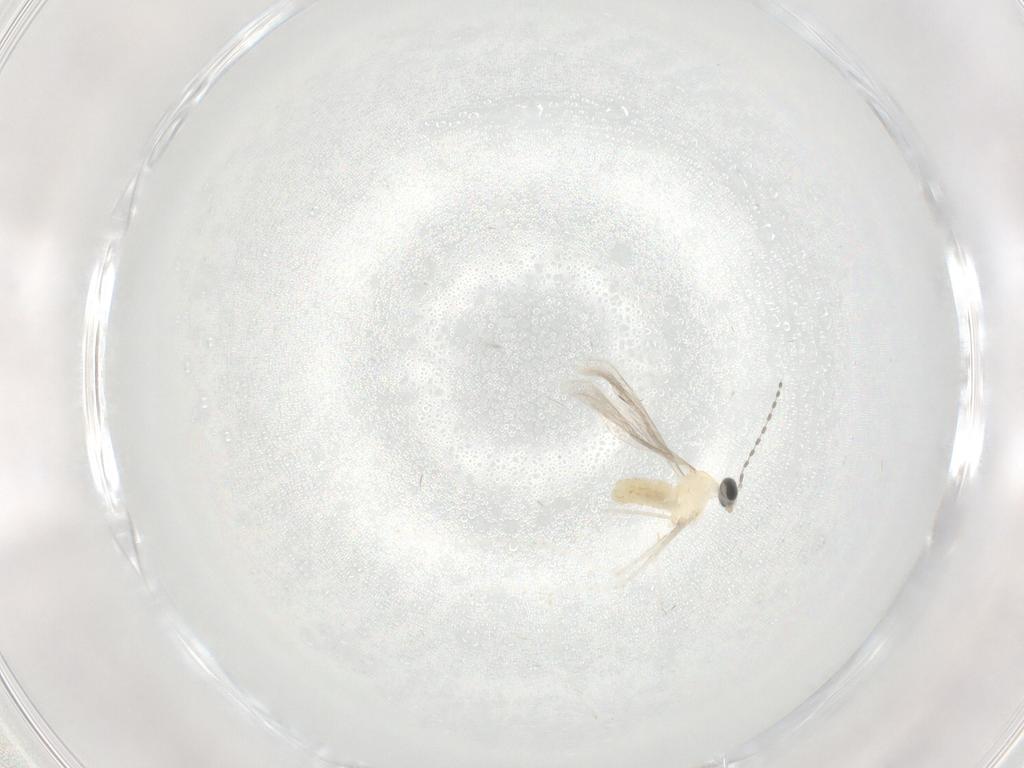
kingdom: Animalia
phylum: Arthropoda
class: Insecta
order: Diptera
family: Cecidomyiidae
